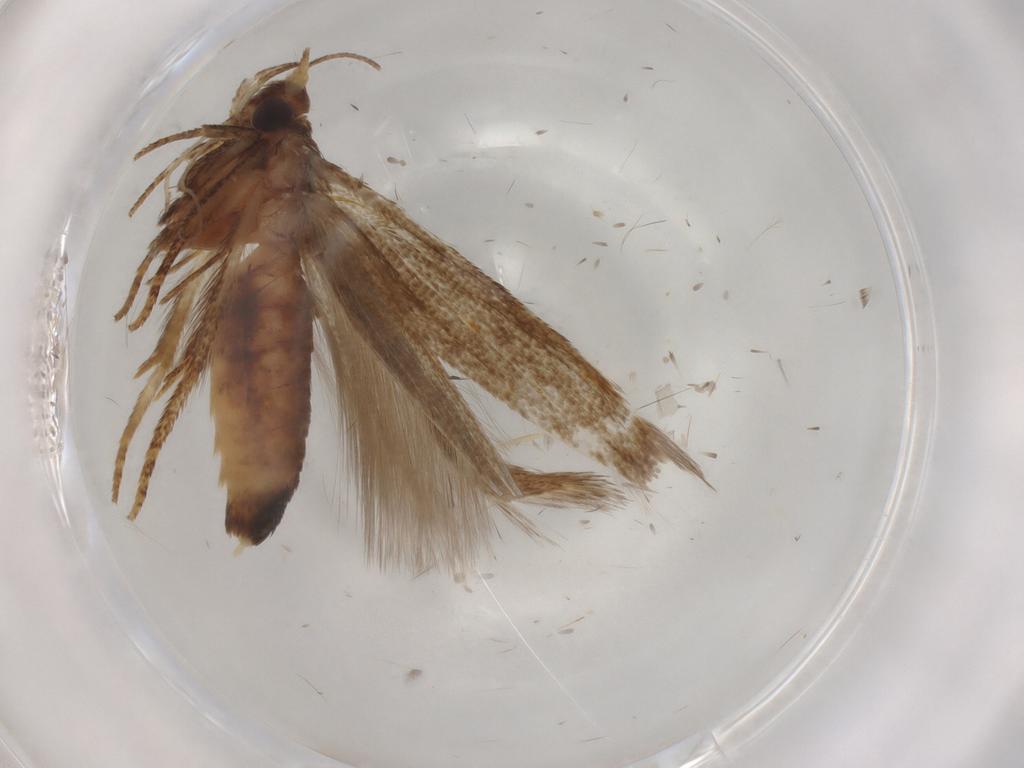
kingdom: Animalia
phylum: Arthropoda
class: Insecta
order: Lepidoptera
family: Blastobasidae
